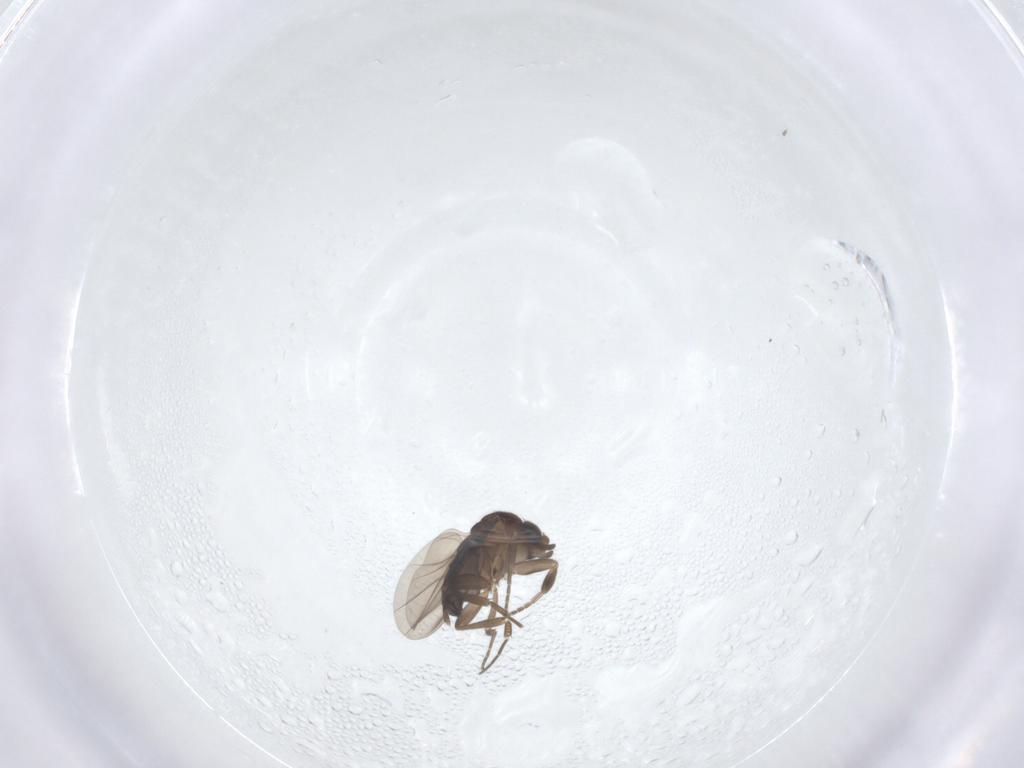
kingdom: Animalia
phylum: Arthropoda
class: Insecta
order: Diptera
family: Phoridae
